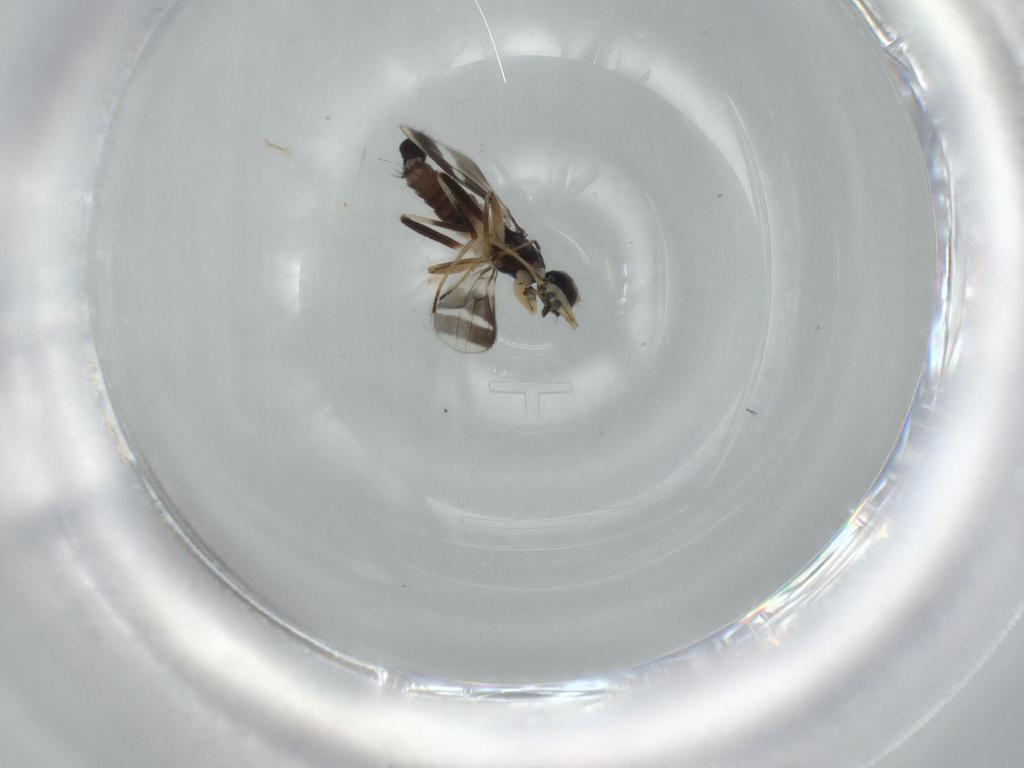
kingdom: Animalia
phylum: Arthropoda
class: Insecta
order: Diptera
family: Hybotidae
